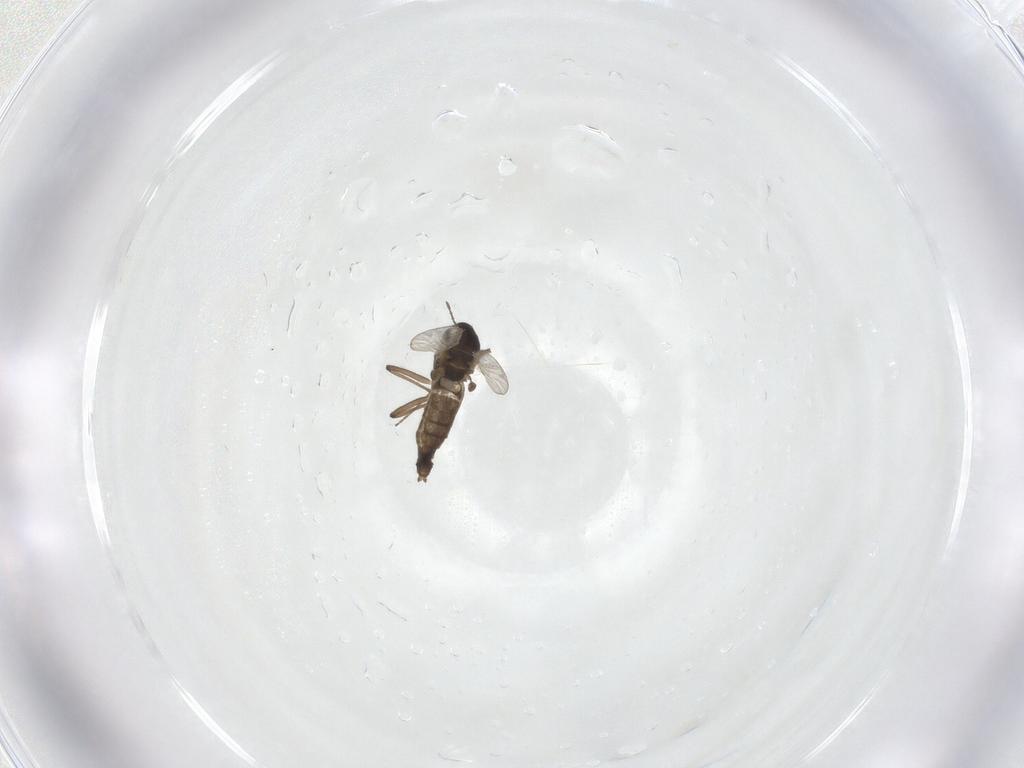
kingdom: Animalia
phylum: Arthropoda
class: Insecta
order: Diptera
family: Chironomidae
